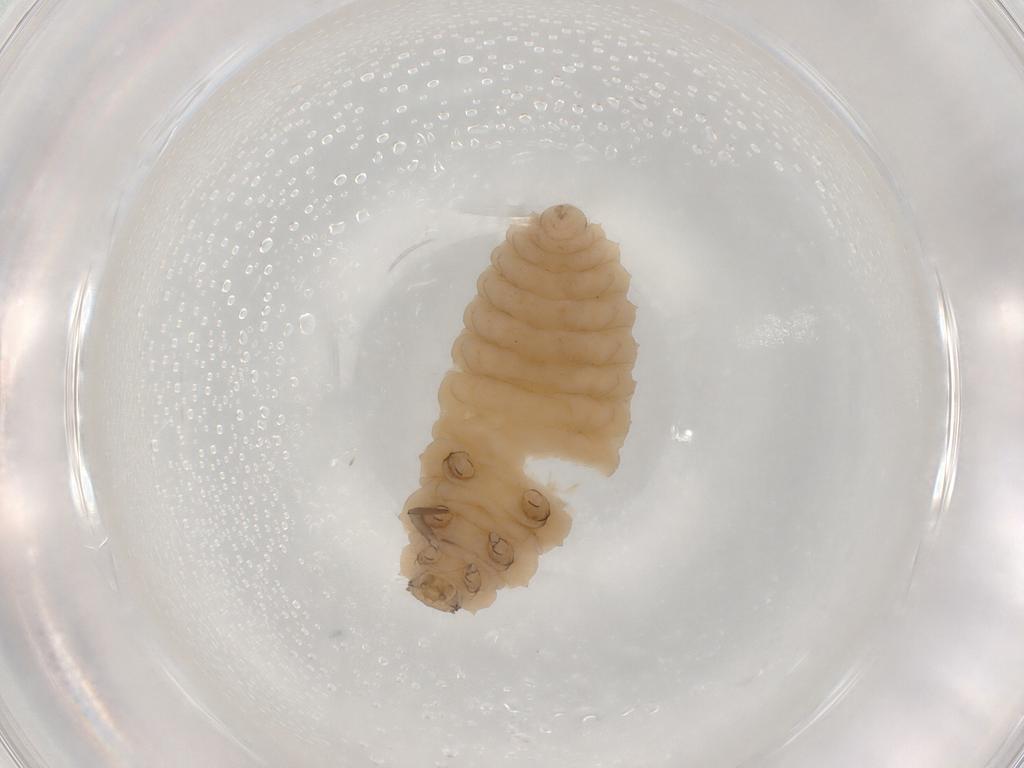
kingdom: Animalia
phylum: Arthropoda
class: Insecta
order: Coleoptera
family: Coccinellidae
